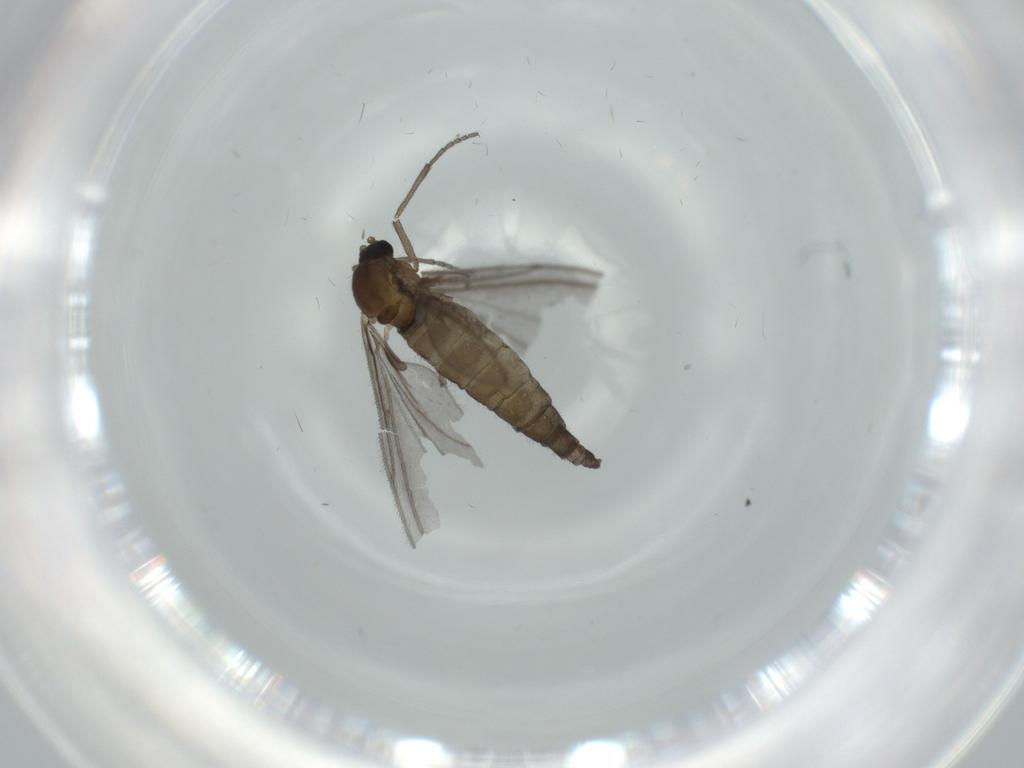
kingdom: Animalia
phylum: Arthropoda
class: Insecta
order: Diptera
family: Sciaridae
